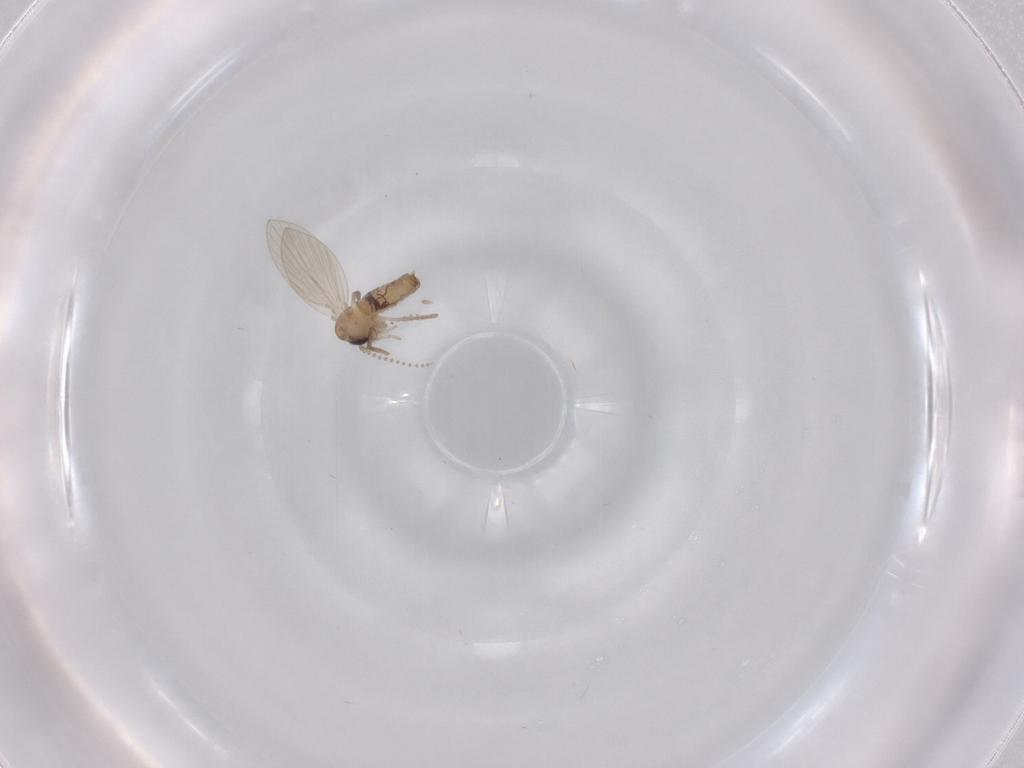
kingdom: Animalia
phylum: Arthropoda
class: Insecta
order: Diptera
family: Psychodidae
